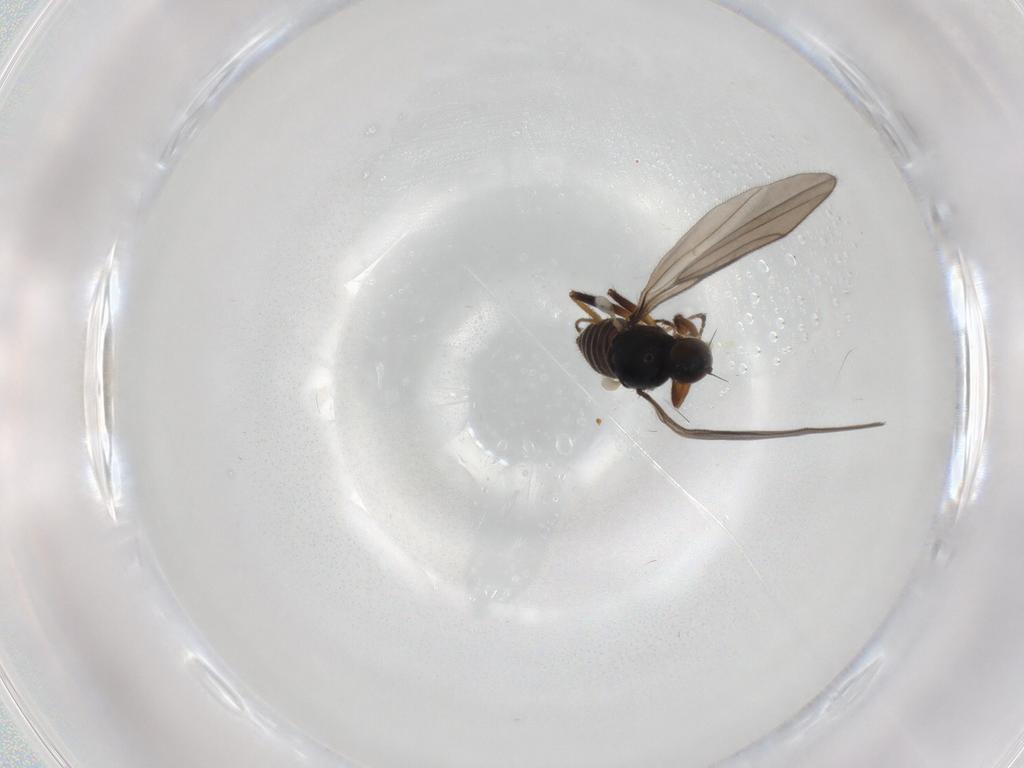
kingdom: Animalia
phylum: Arthropoda
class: Insecta
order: Diptera
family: Hybotidae
